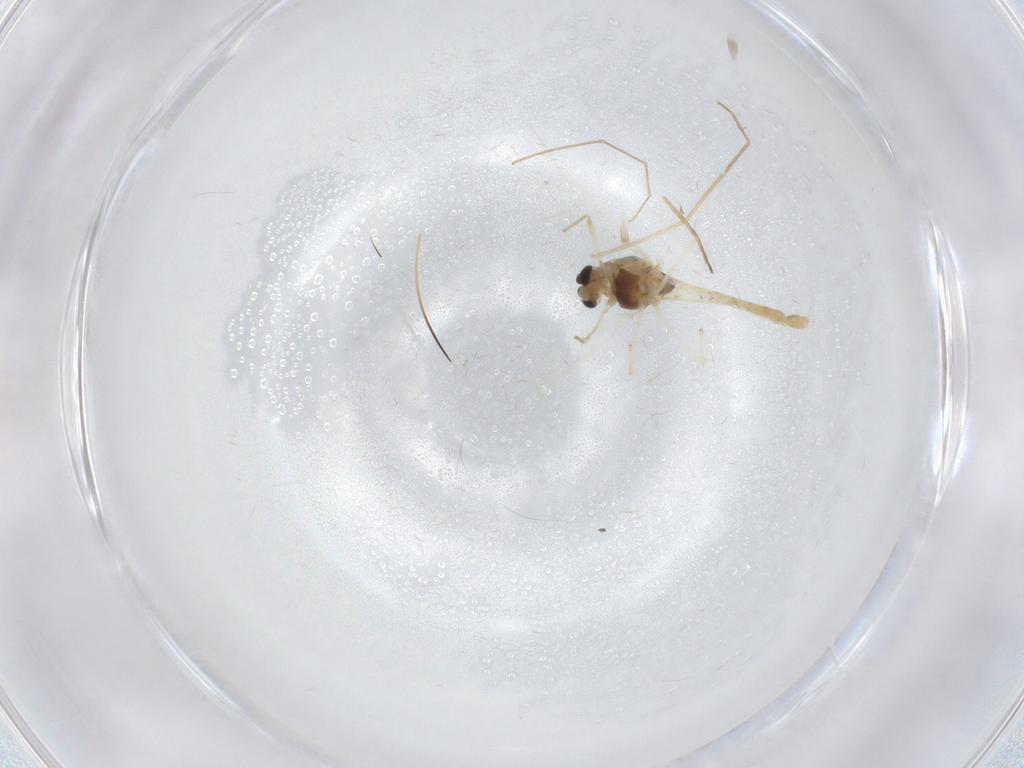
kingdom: Animalia
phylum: Arthropoda
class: Insecta
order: Diptera
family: Chironomidae
